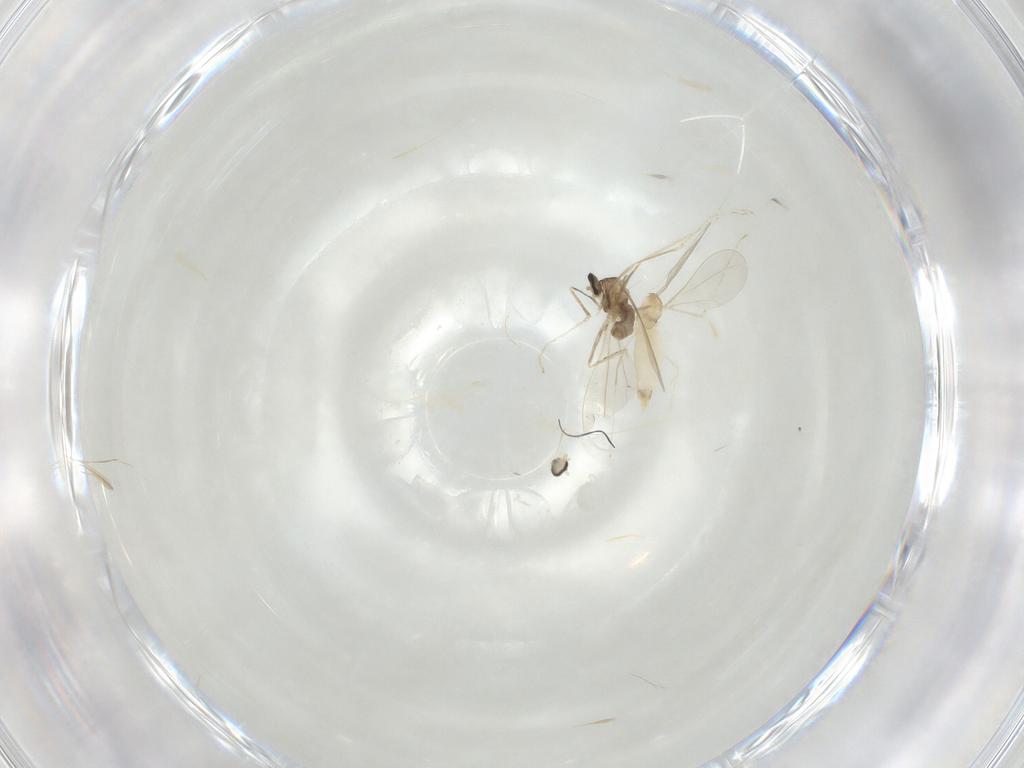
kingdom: Animalia
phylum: Arthropoda
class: Insecta
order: Diptera
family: Cecidomyiidae
